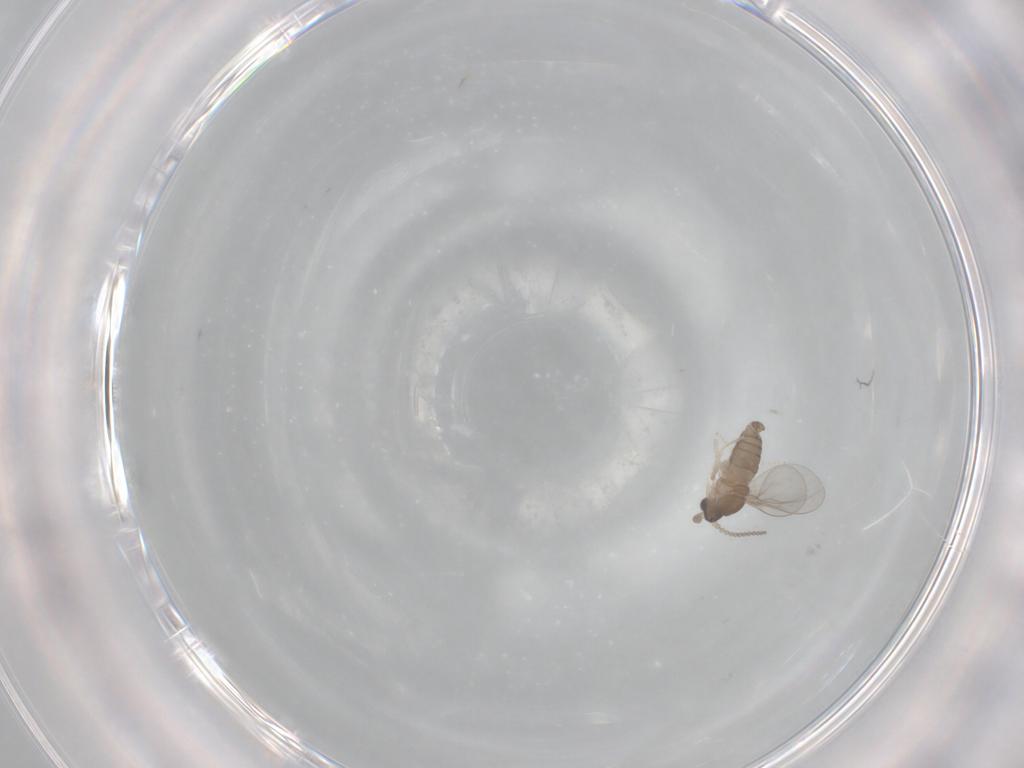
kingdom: Animalia
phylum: Arthropoda
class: Insecta
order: Diptera
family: Cecidomyiidae
